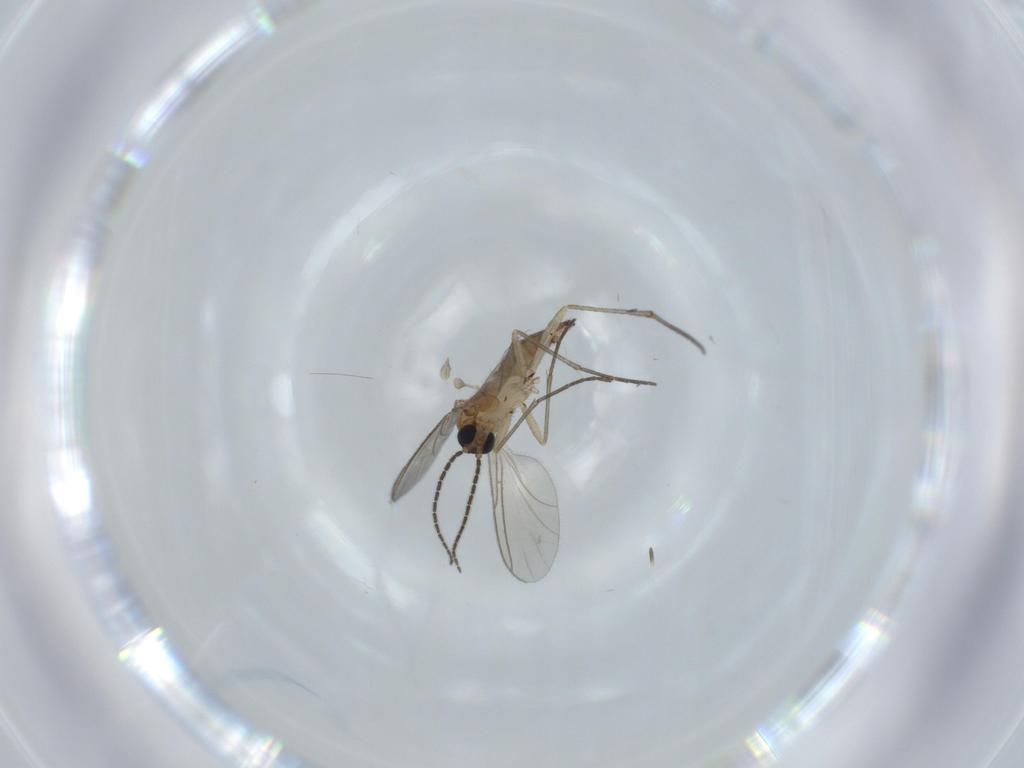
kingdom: Animalia
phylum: Arthropoda
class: Insecta
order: Diptera
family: Sciaridae
